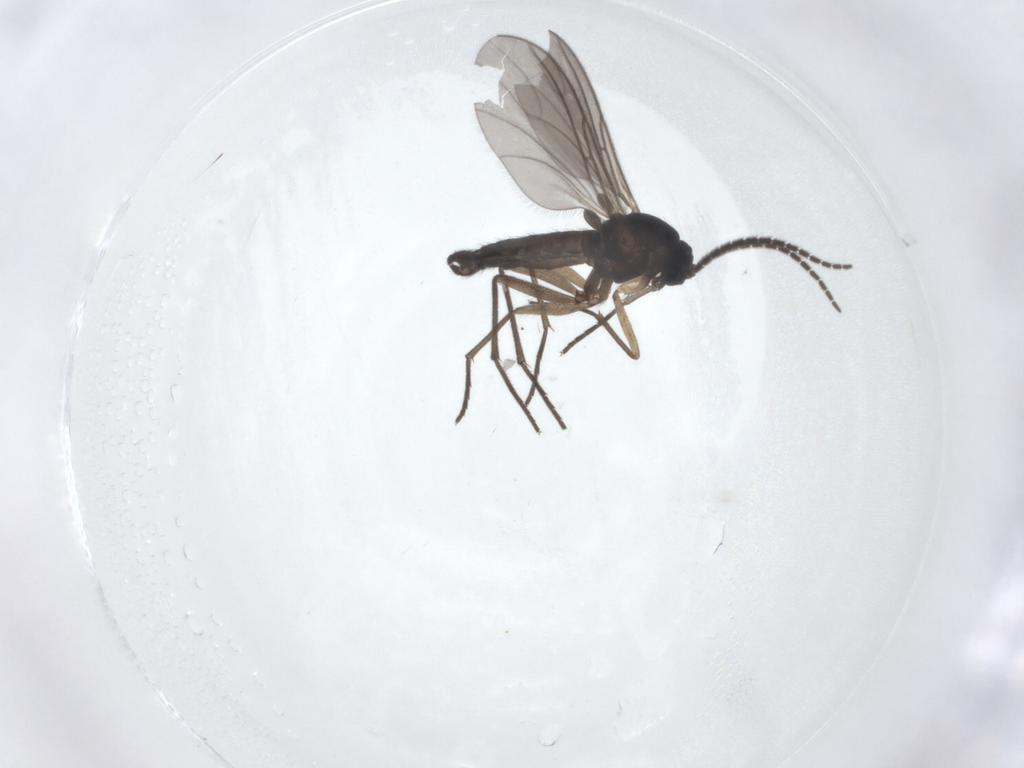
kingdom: Animalia
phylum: Arthropoda
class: Insecta
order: Diptera
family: Sciaridae
